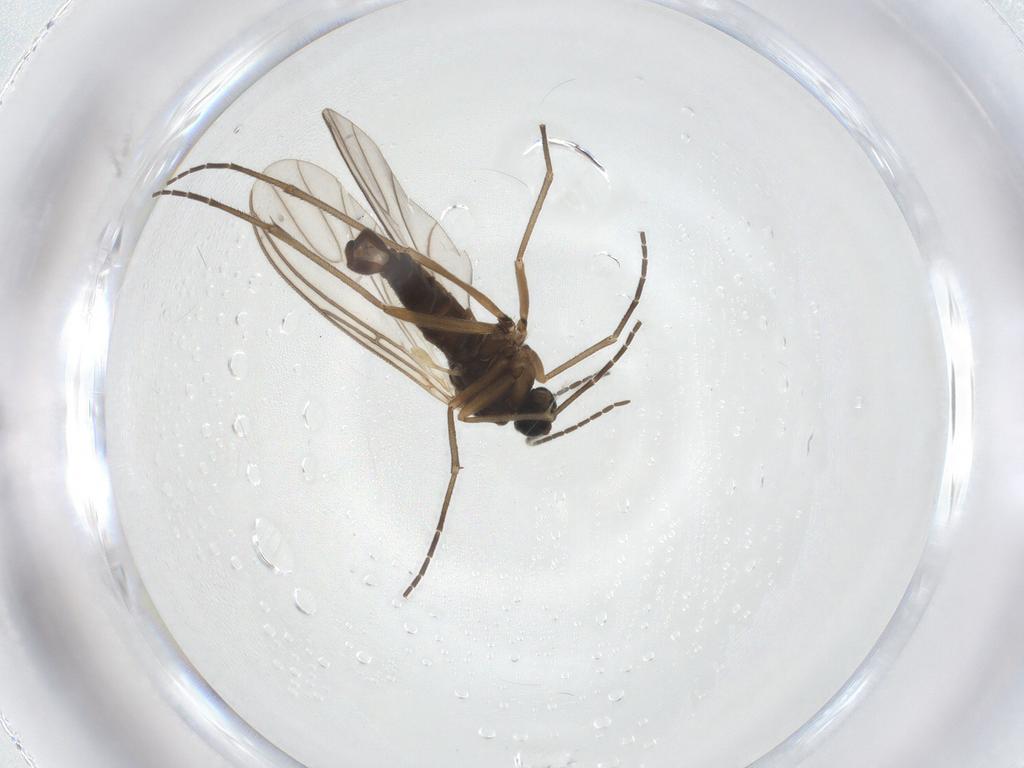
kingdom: Animalia
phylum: Arthropoda
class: Insecta
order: Diptera
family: Sciaridae
